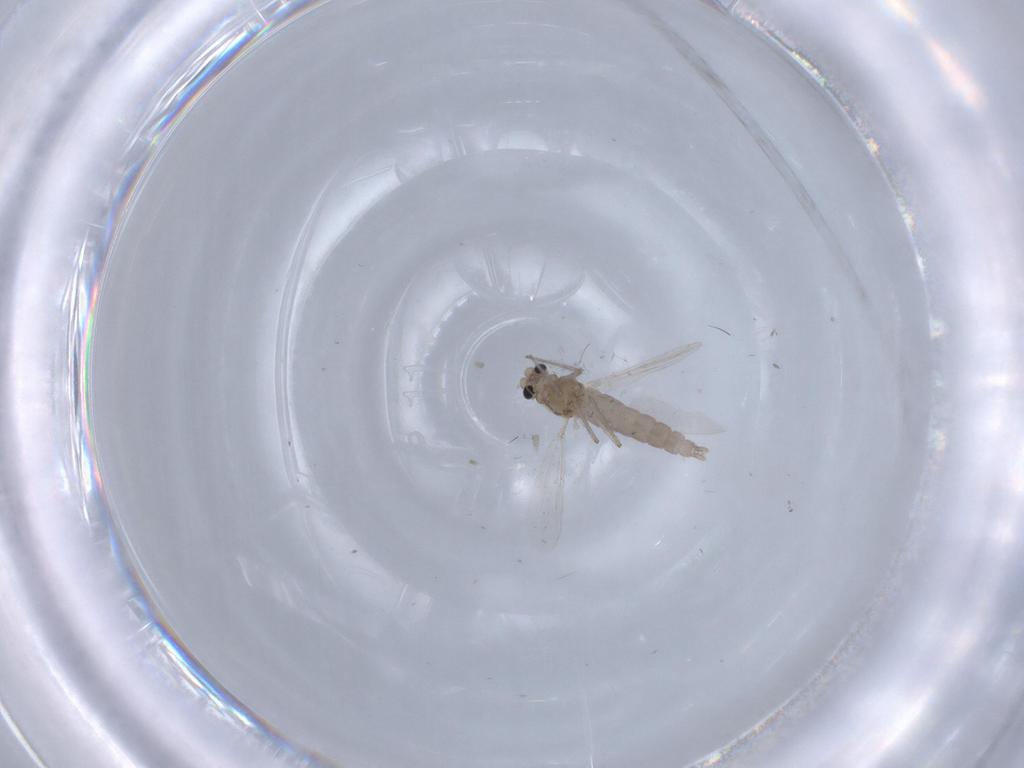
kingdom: Animalia
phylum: Arthropoda
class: Insecta
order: Diptera
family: Chironomidae
